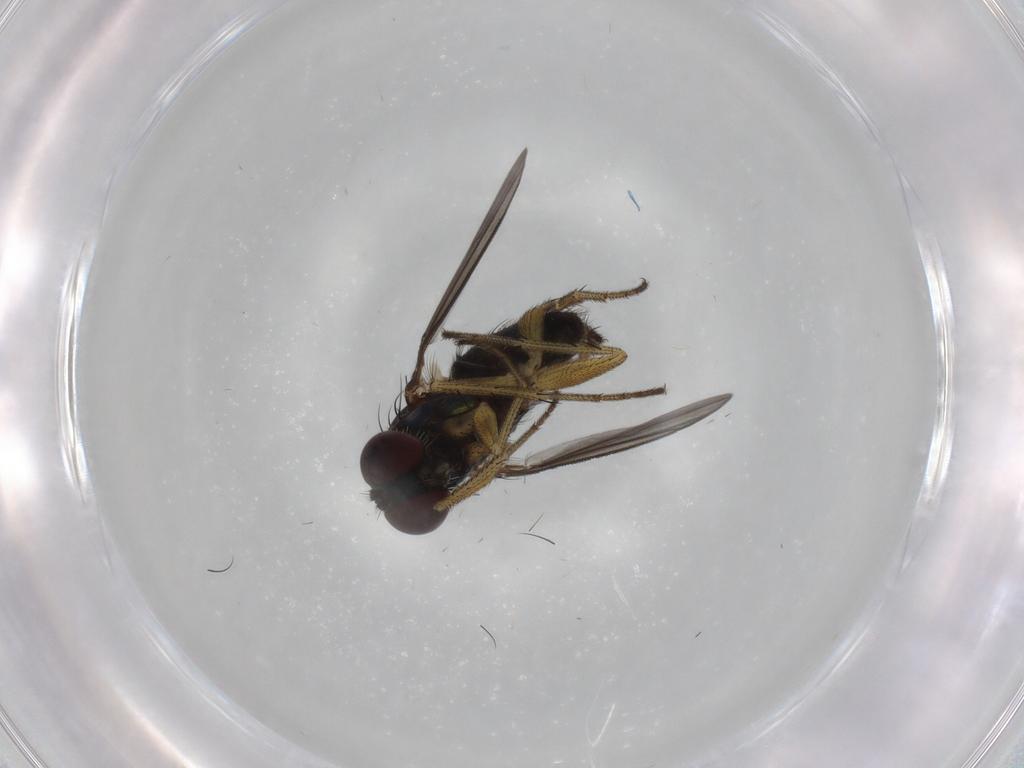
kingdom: Animalia
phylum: Arthropoda
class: Insecta
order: Diptera
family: Dolichopodidae
